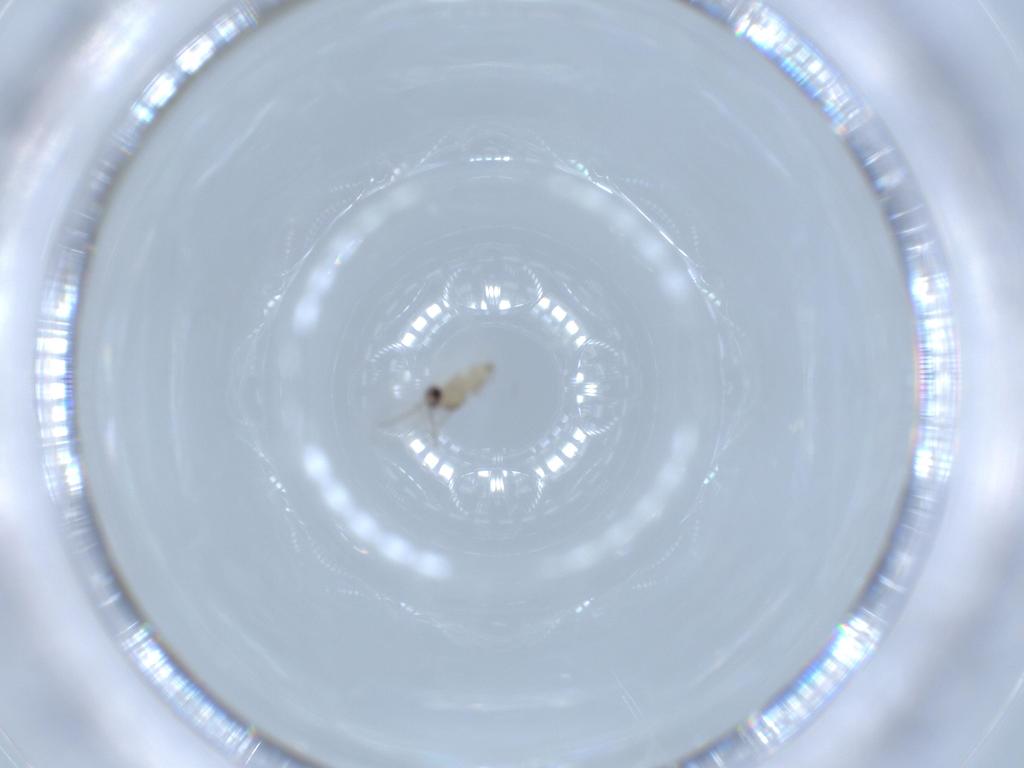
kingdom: Animalia
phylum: Arthropoda
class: Insecta
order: Diptera
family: Cecidomyiidae
